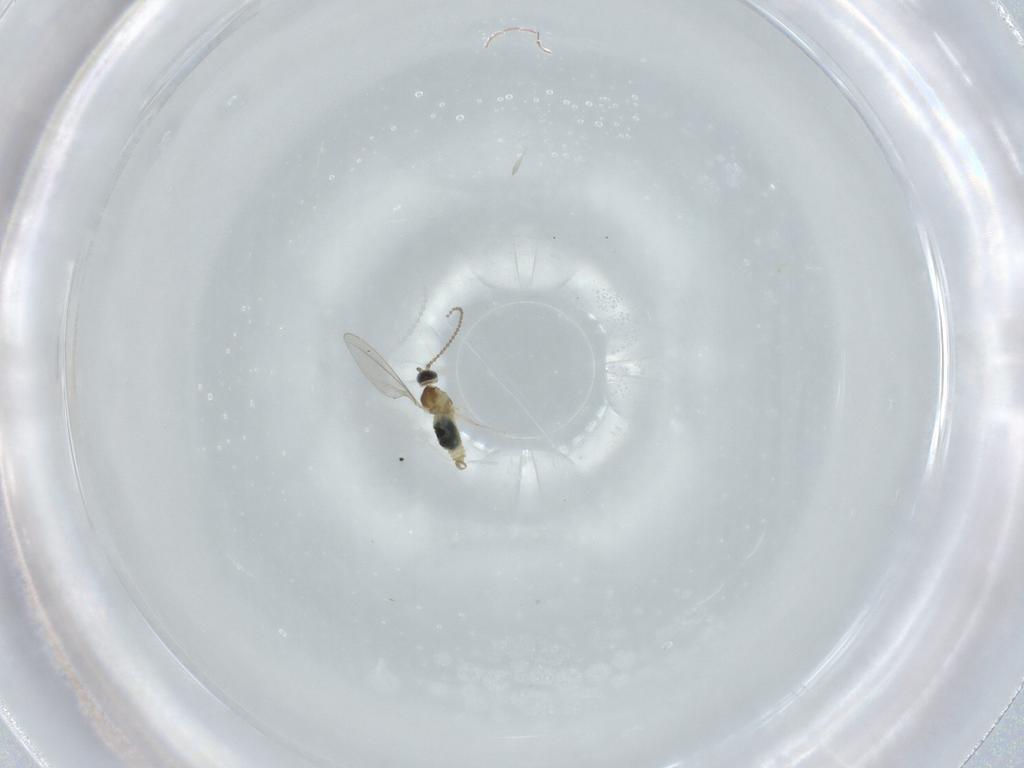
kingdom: Animalia
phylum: Arthropoda
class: Insecta
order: Diptera
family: Cecidomyiidae
